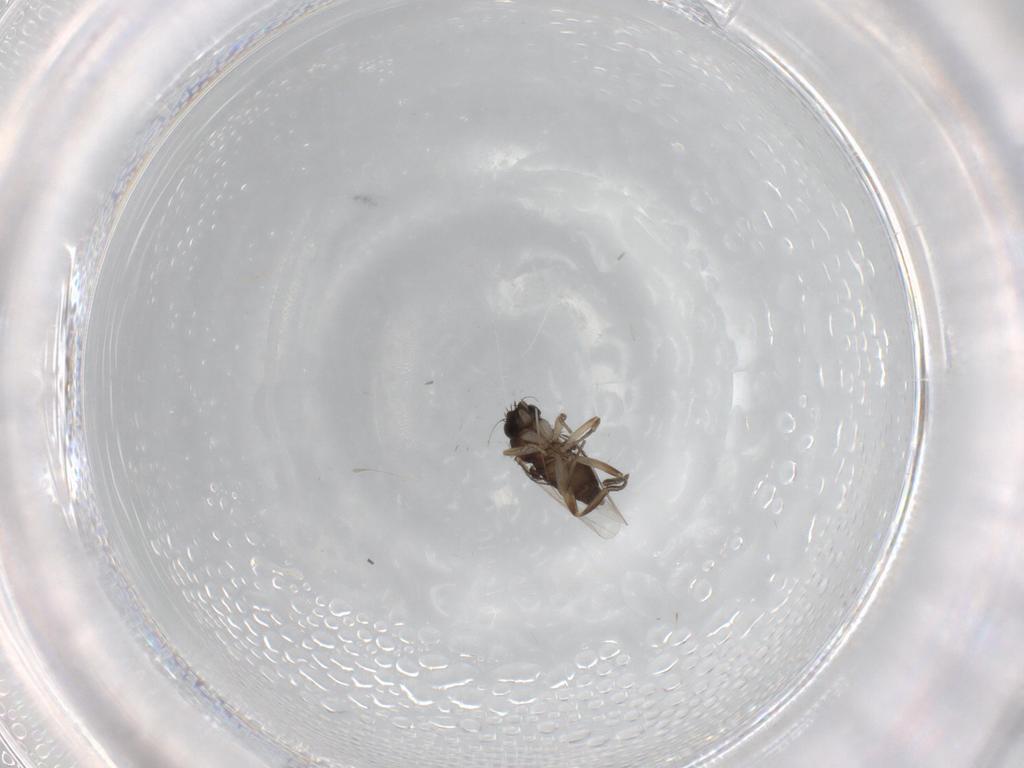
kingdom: Animalia
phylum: Arthropoda
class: Insecta
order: Diptera
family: Phoridae
